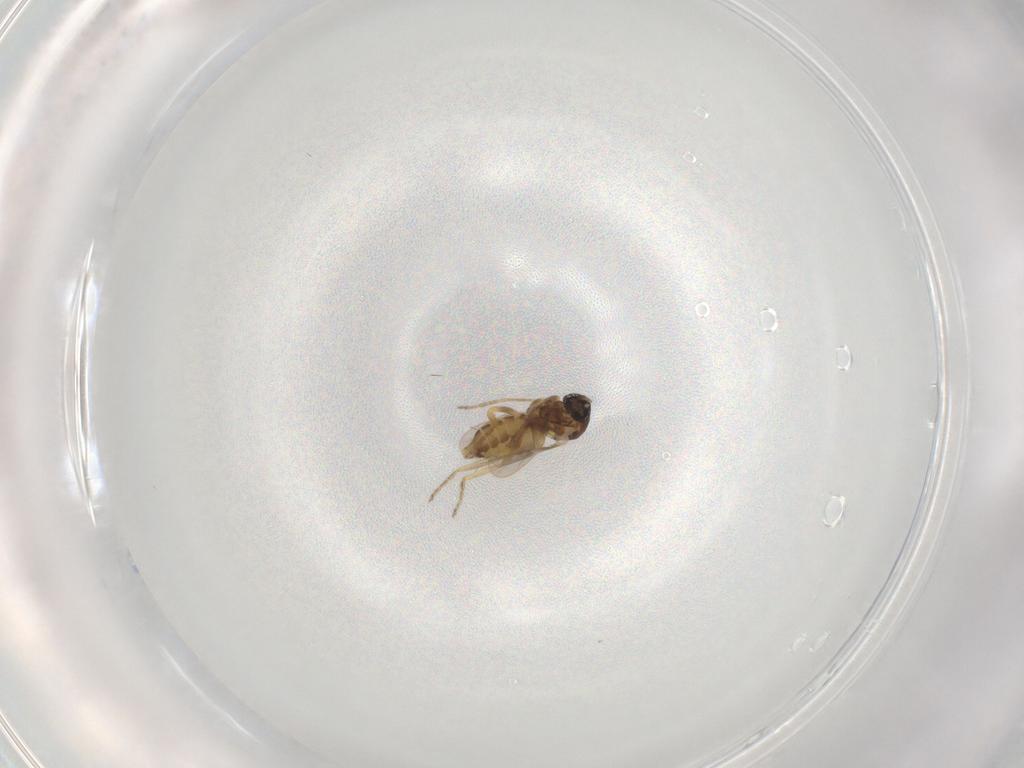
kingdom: Animalia
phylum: Arthropoda
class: Insecta
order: Diptera
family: Ceratopogonidae
